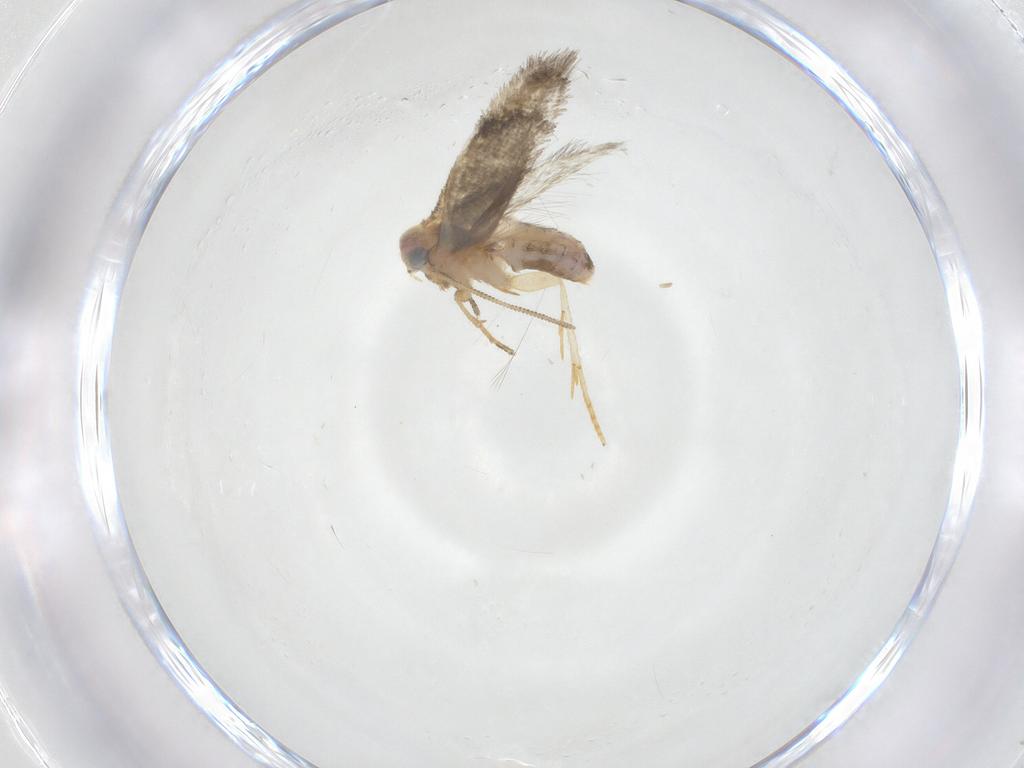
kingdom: Animalia
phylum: Arthropoda
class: Insecta
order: Lepidoptera
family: Nepticulidae
